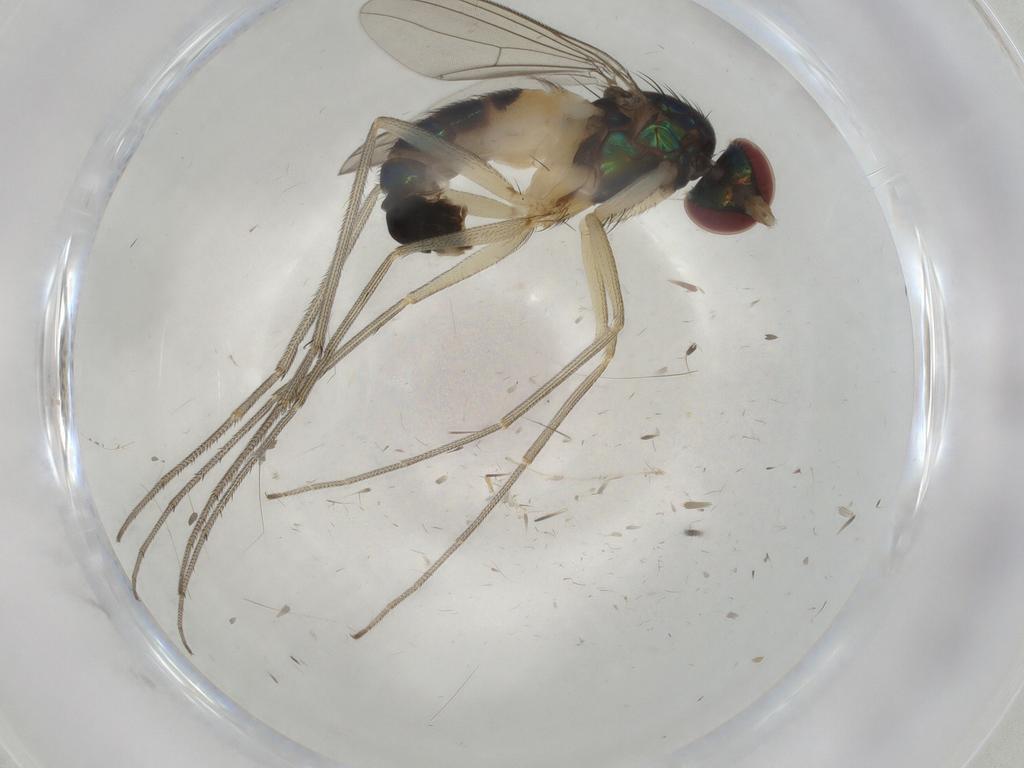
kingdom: Animalia
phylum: Arthropoda
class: Insecta
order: Diptera
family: Dolichopodidae
